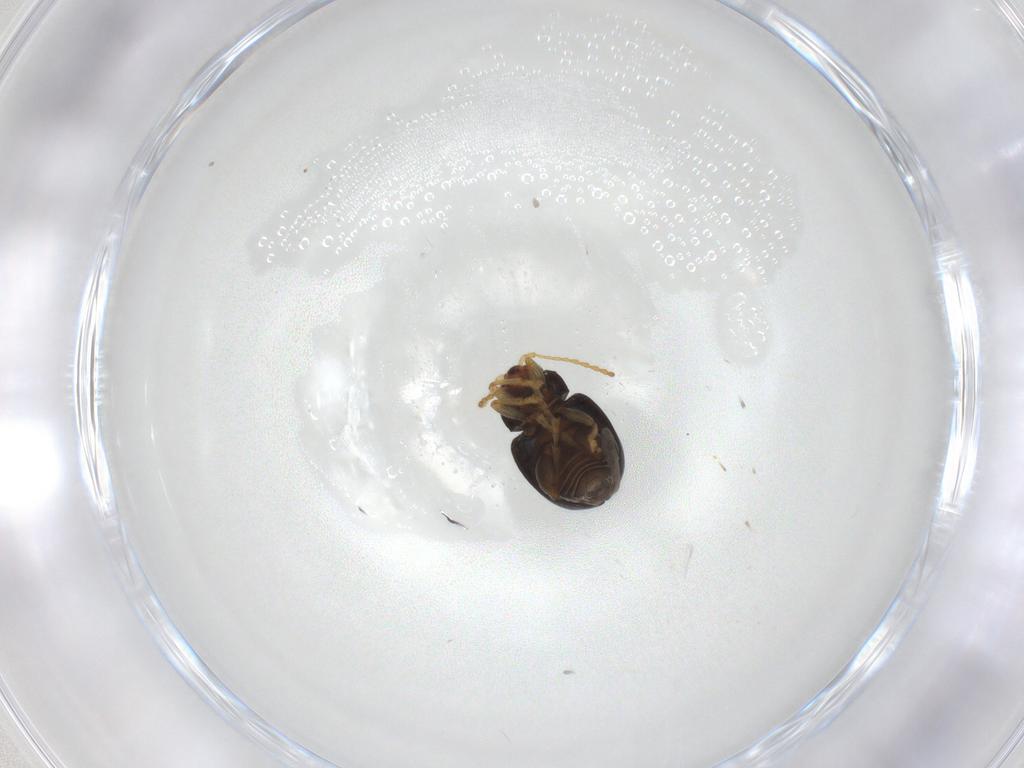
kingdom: Animalia
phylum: Arthropoda
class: Insecta
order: Coleoptera
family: Chrysomelidae
